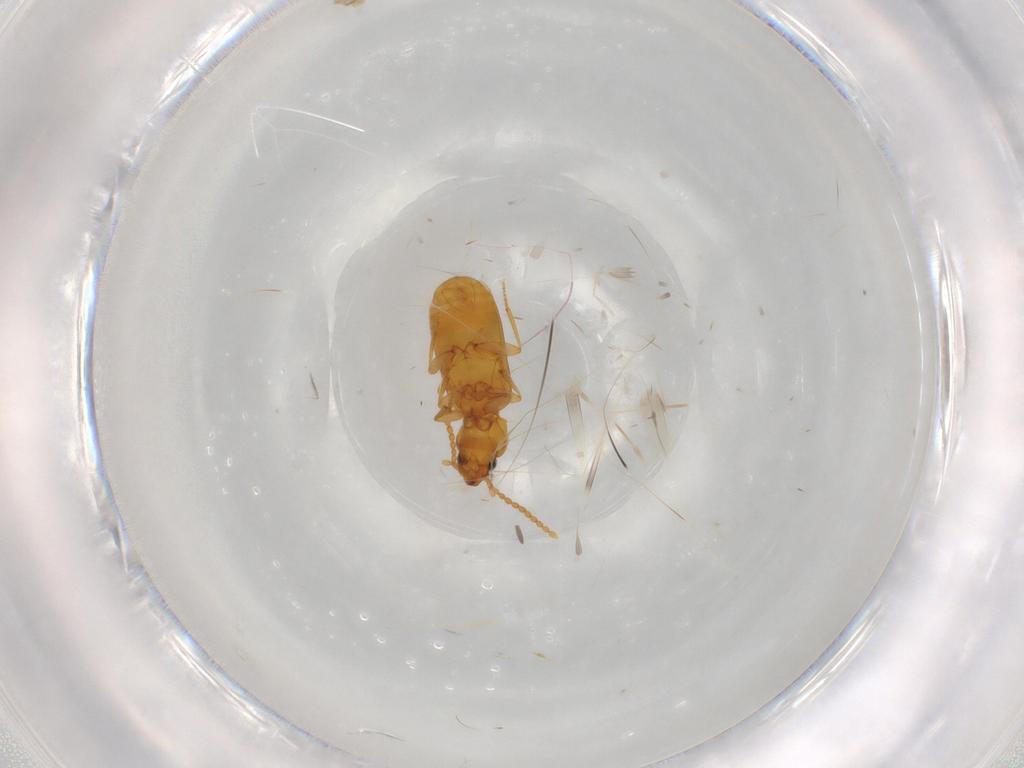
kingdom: Animalia
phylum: Arthropoda
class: Insecta
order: Coleoptera
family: Carabidae
